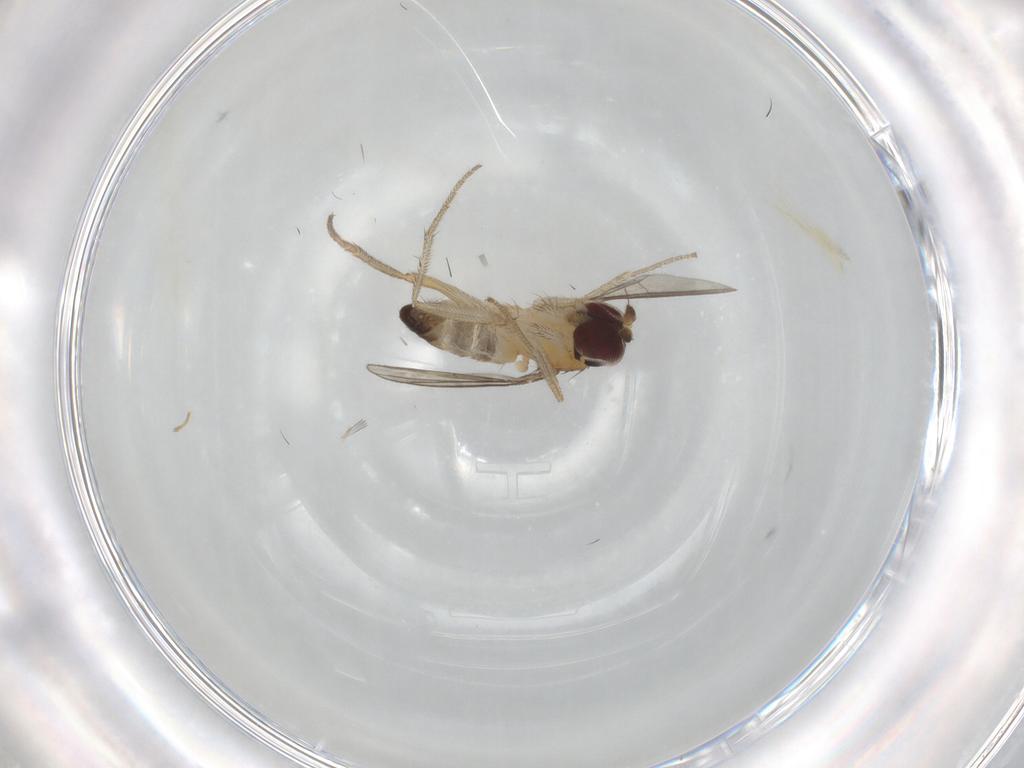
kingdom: Animalia
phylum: Arthropoda
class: Insecta
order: Diptera
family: Dolichopodidae
